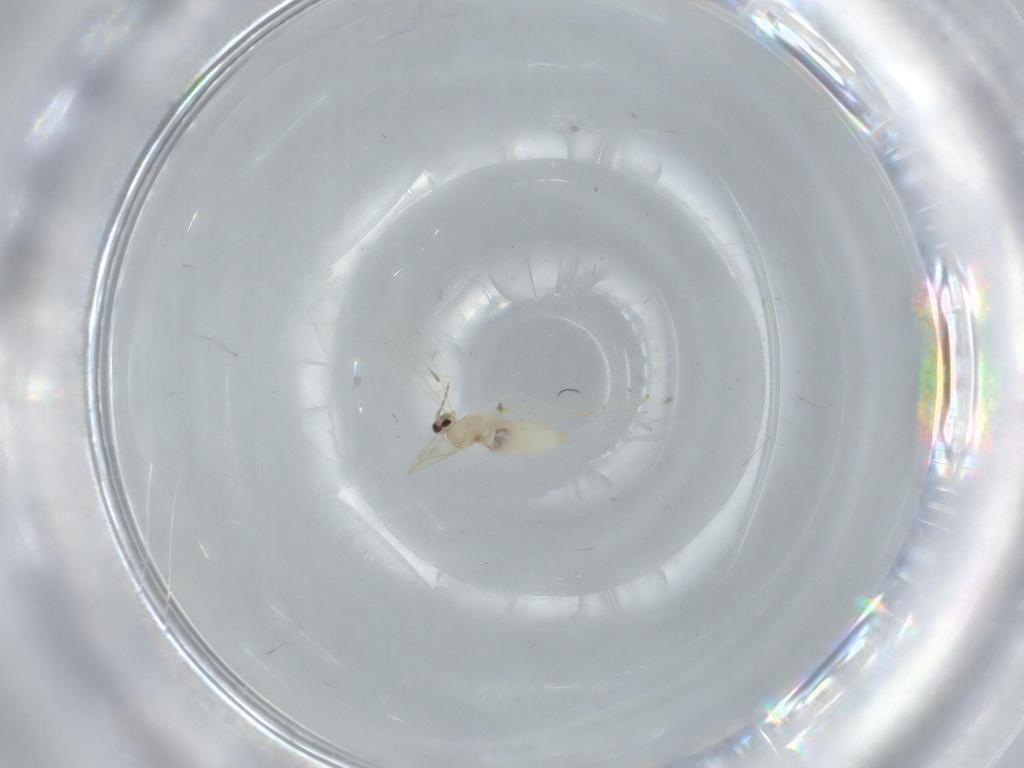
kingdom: Animalia
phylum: Arthropoda
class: Insecta
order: Diptera
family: Cecidomyiidae
